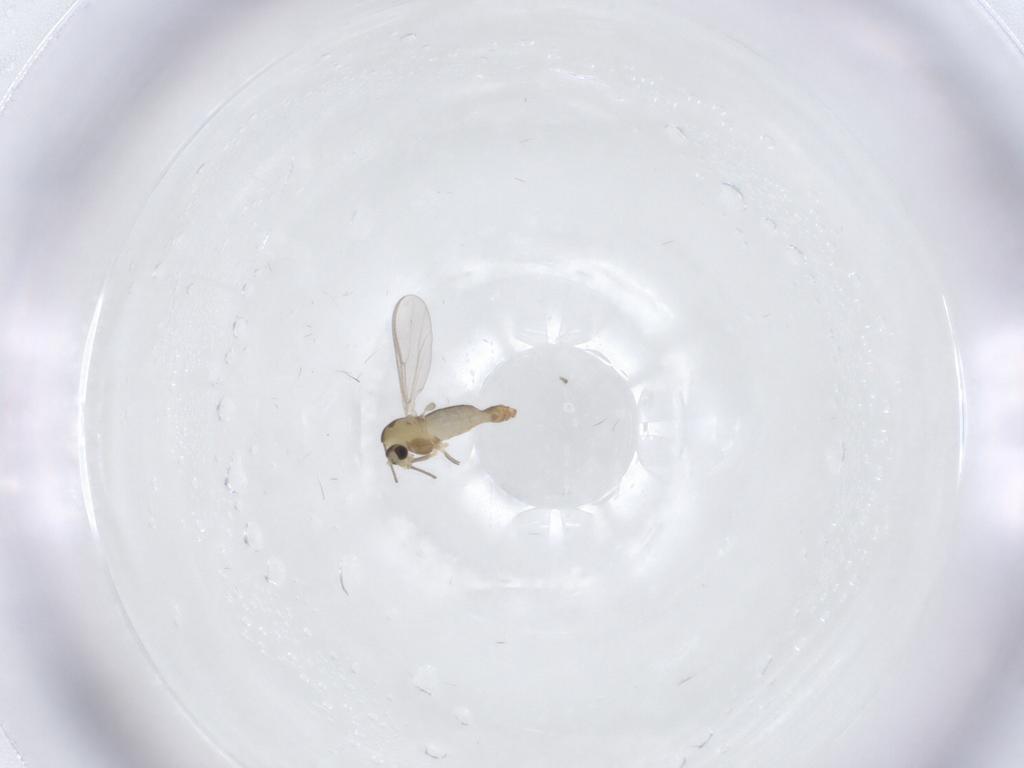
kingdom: Animalia
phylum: Arthropoda
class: Insecta
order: Diptera
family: Chironomidae
